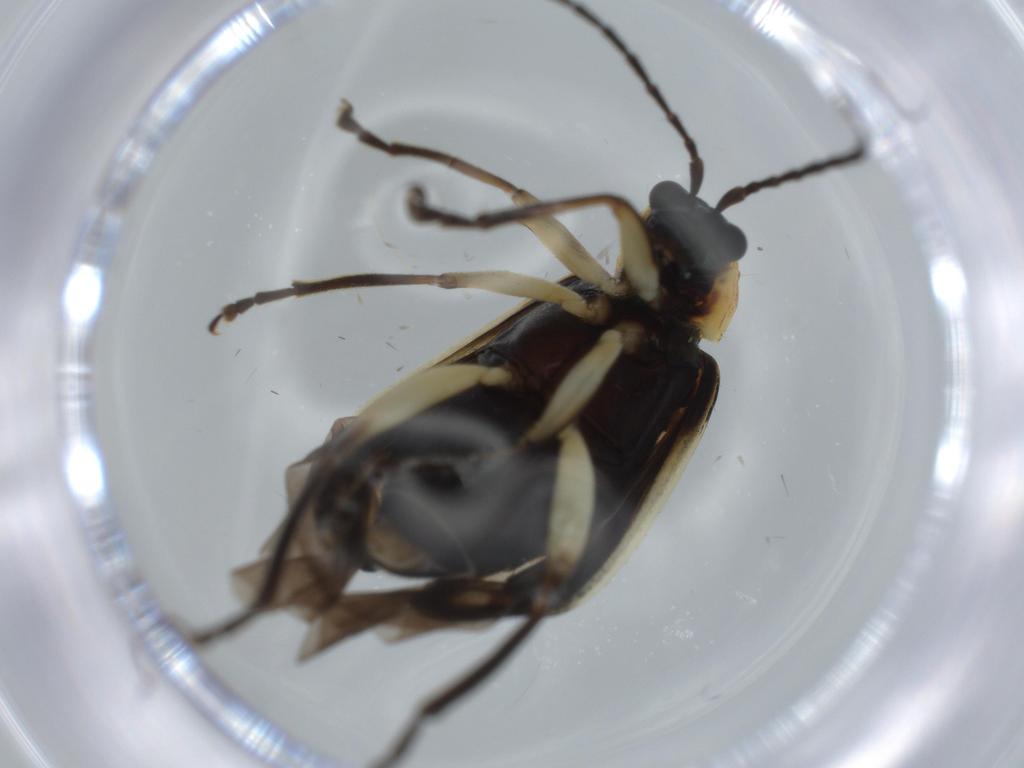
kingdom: Animalia
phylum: Arthropoda
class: Insecta
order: Coleoptera
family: Staphylinidae
